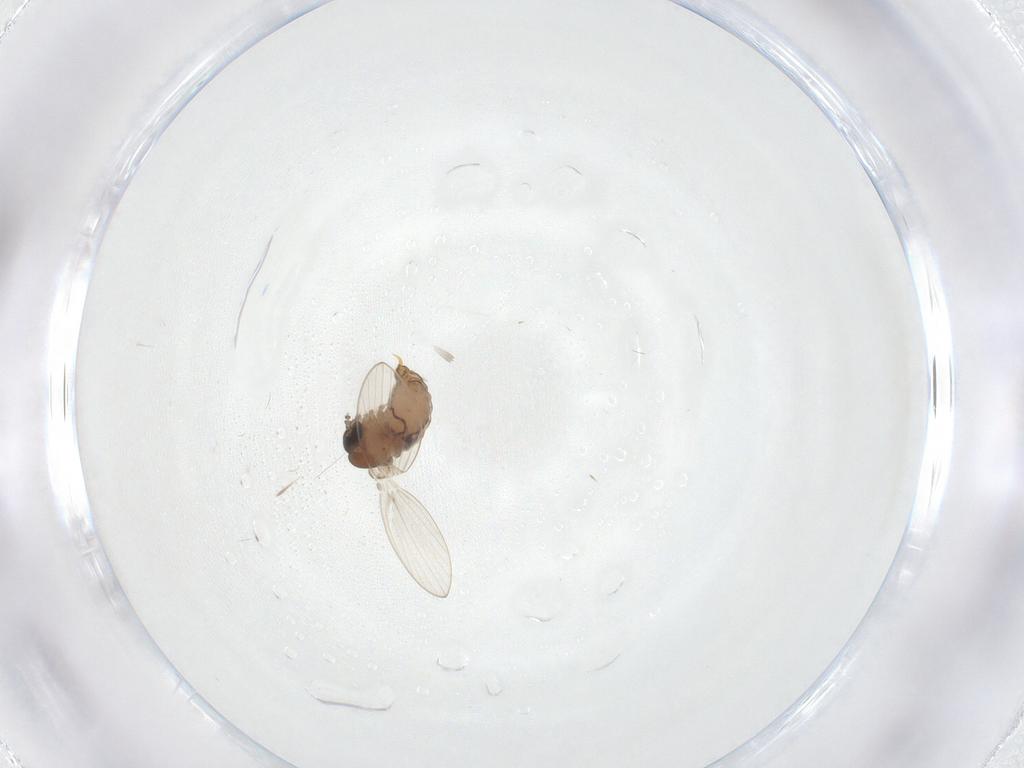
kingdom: Animalia
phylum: Arthropoda
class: Insecta
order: Diptera
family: Psychodidae
